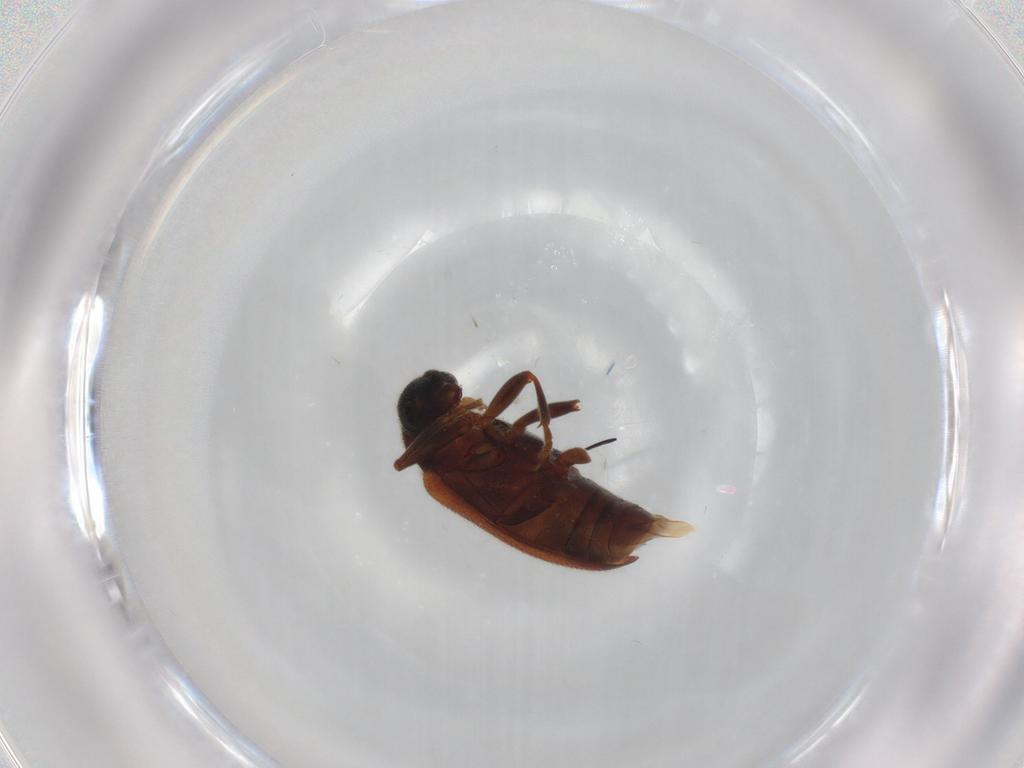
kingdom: Animalia
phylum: Arthropoda
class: Insecta
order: Coleoptera
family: Aderidae
